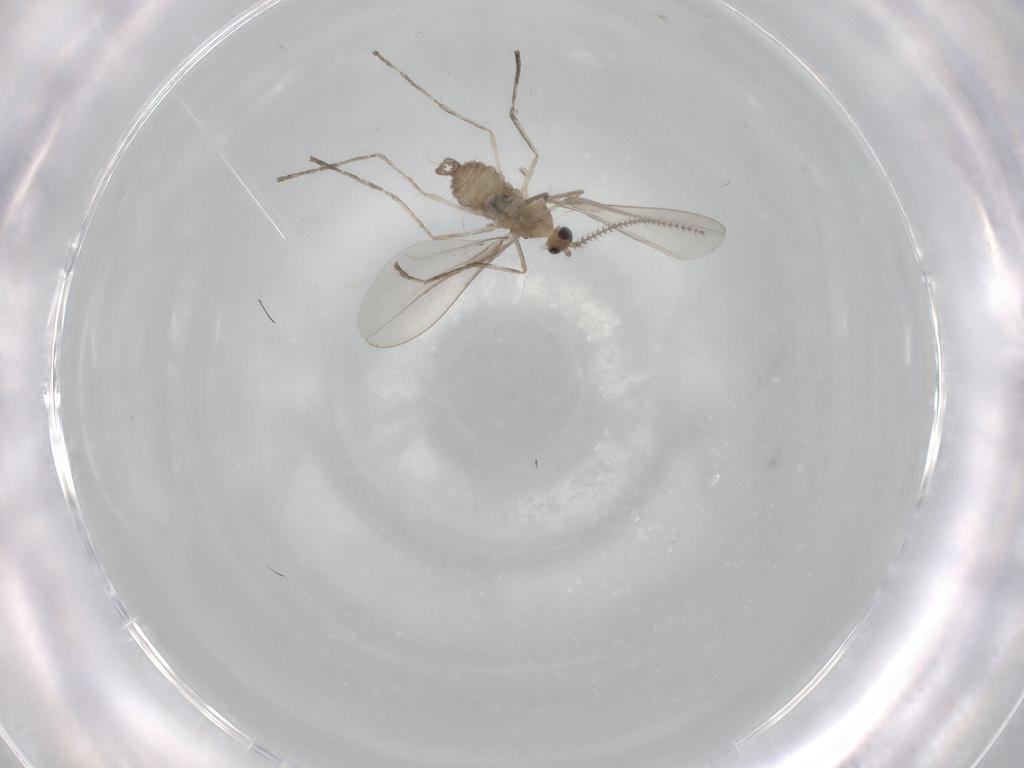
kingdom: Animalia
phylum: Arthropoda
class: Insecta
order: Diptera
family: Cecidomyiidae
